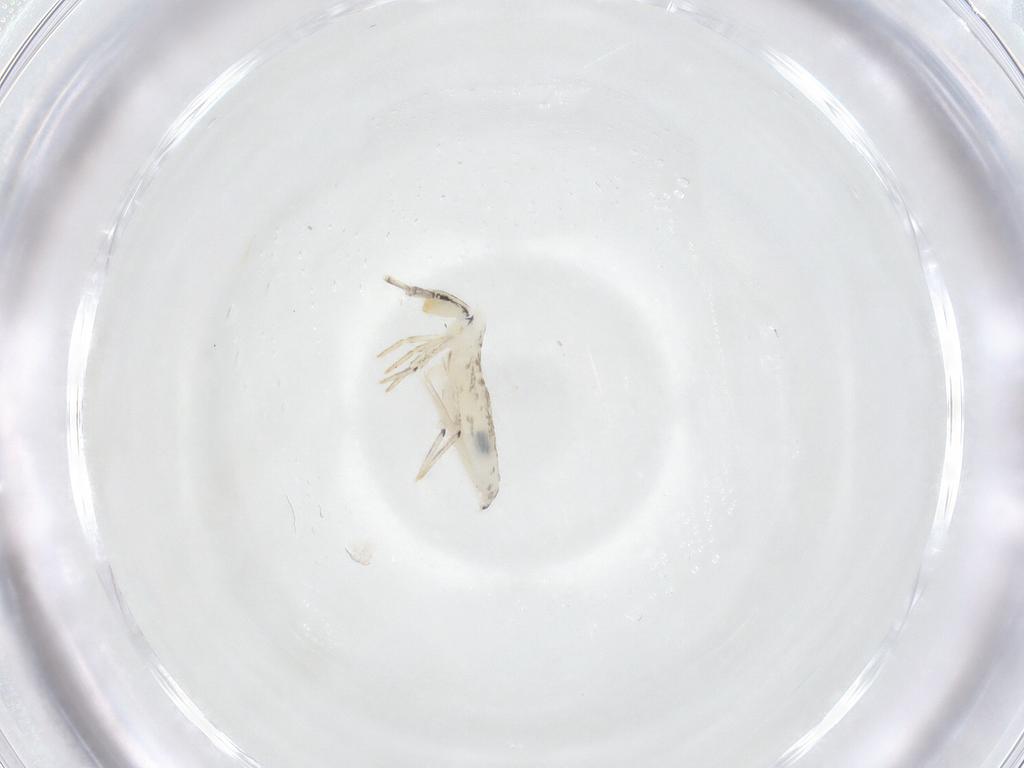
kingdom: Animalia
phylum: Arthropoda
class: Collembola
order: Entomobryomorpha
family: Entomobryidae
